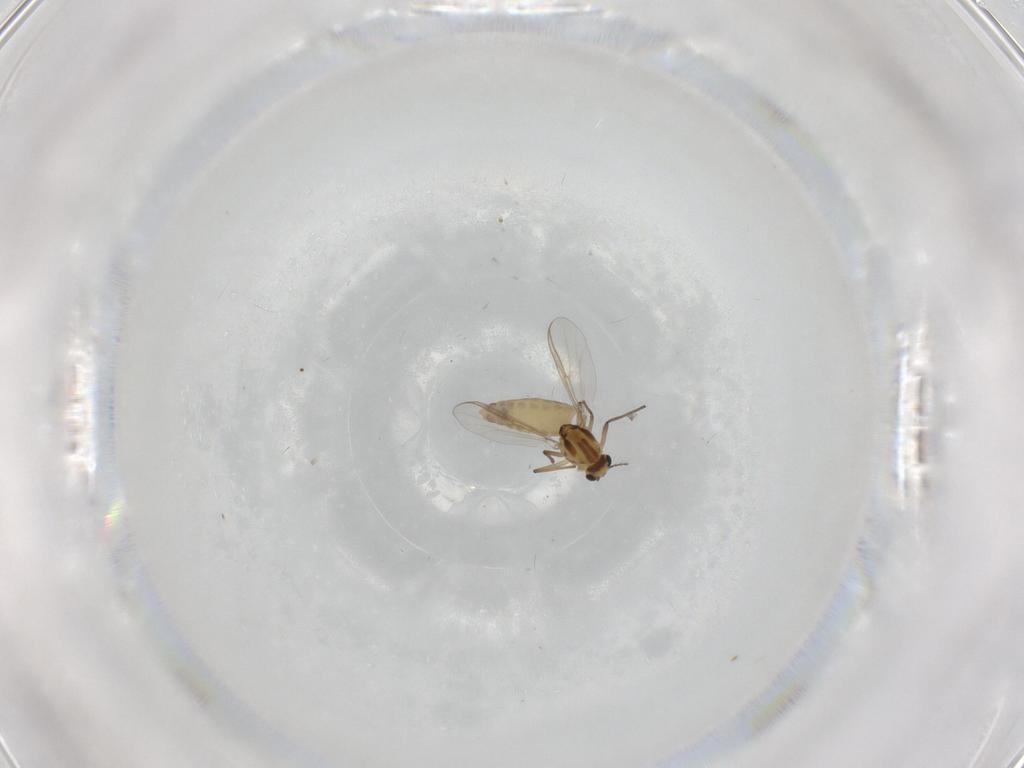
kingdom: Animalia
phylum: Arthropoda
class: Insecta
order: Diptera
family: Chironomidae
